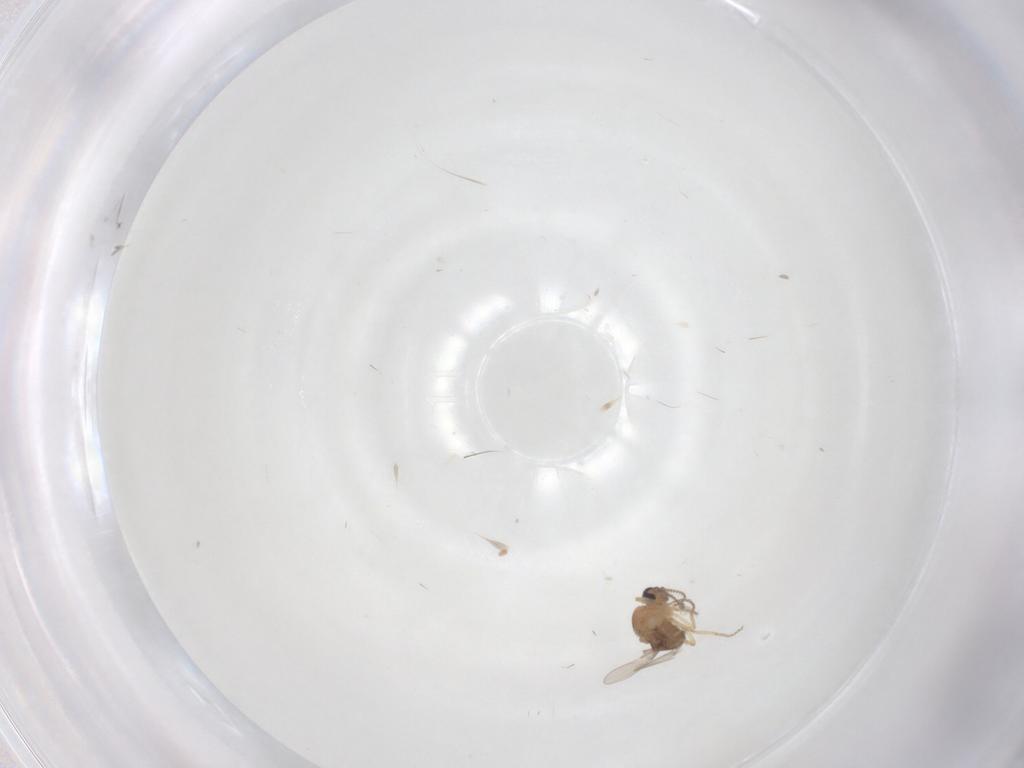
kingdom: Animalia
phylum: Arthropoda
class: Insecta
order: Diptera
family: Ceratopogonidae
